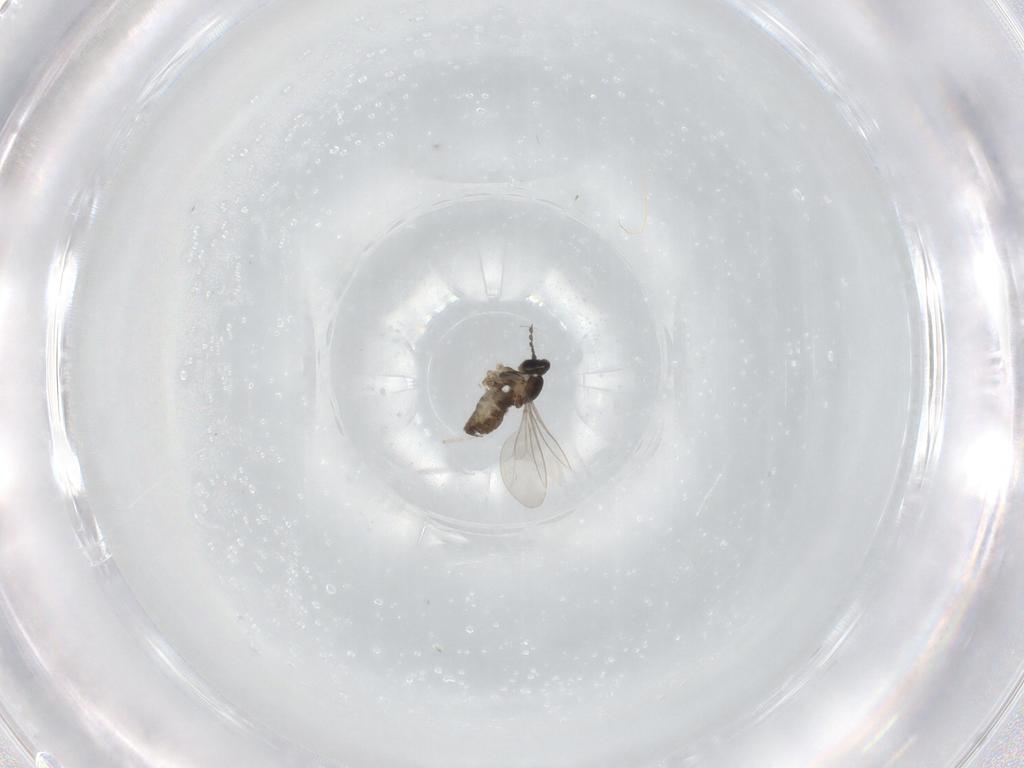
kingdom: Animalia
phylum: Arthropoda
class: Insecta
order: Diptera
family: Cecidomyiidae
